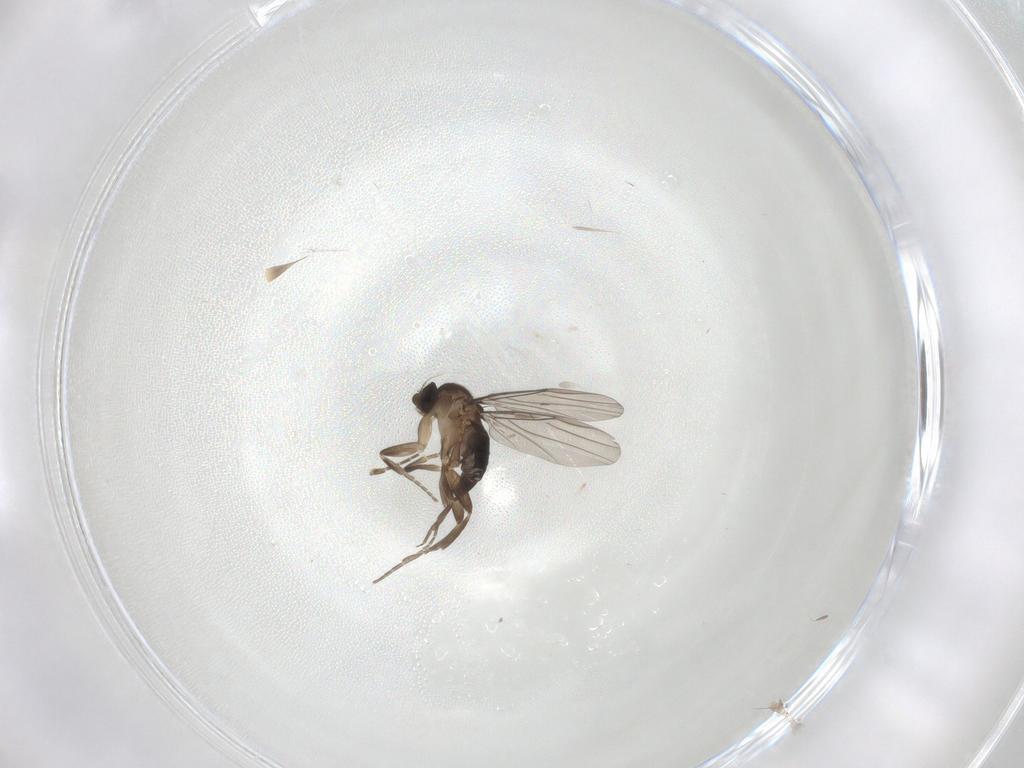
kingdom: Animalia
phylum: Arthropoda
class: Insecta
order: Diptera
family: Phoridae
